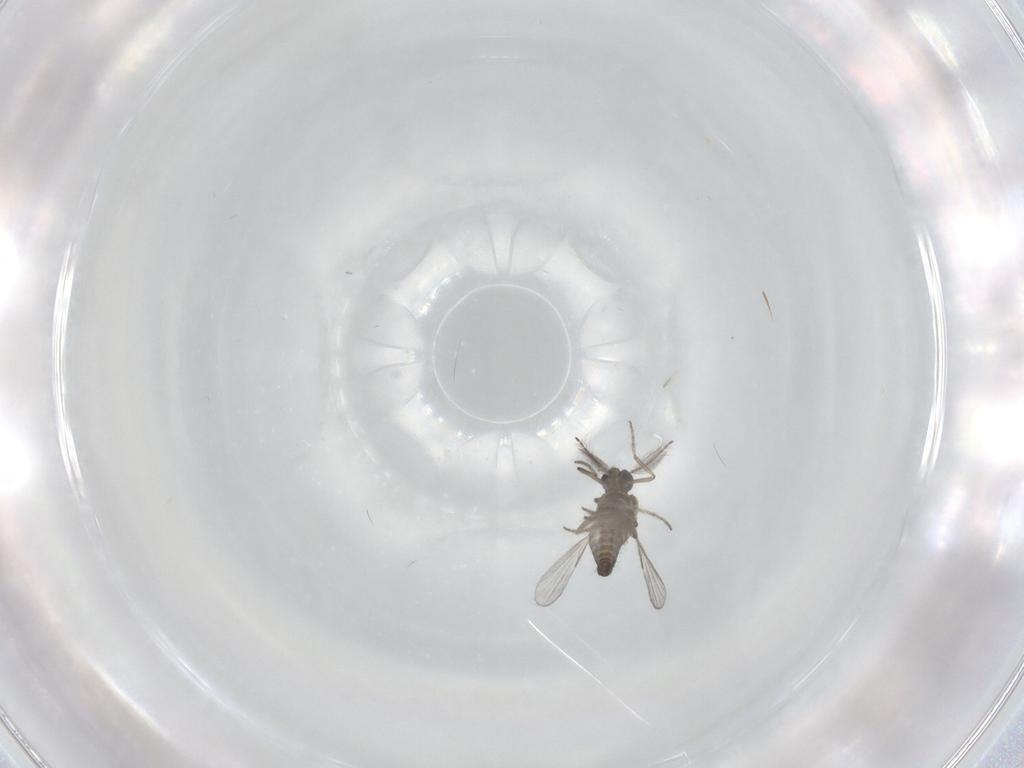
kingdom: Animalia
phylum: Arthropoda
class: Insecta
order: Diptera
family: Ceratopogonidae
